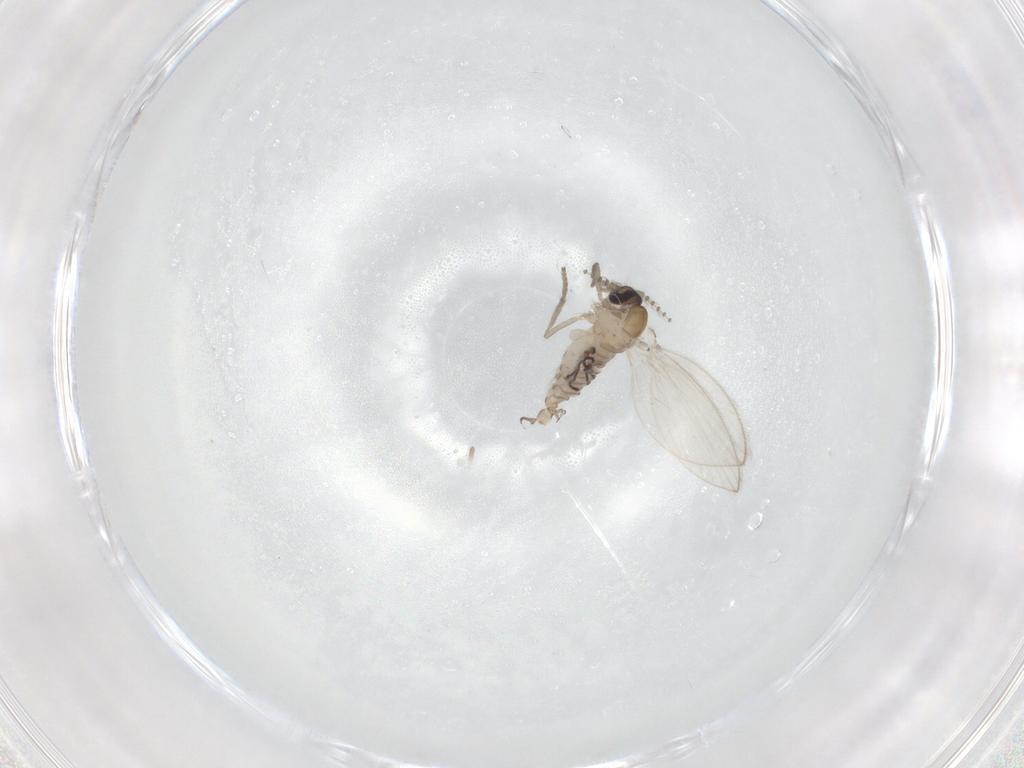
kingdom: Animalia
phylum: Arthropoda
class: Insecta
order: Diptera
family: Psychodidae
